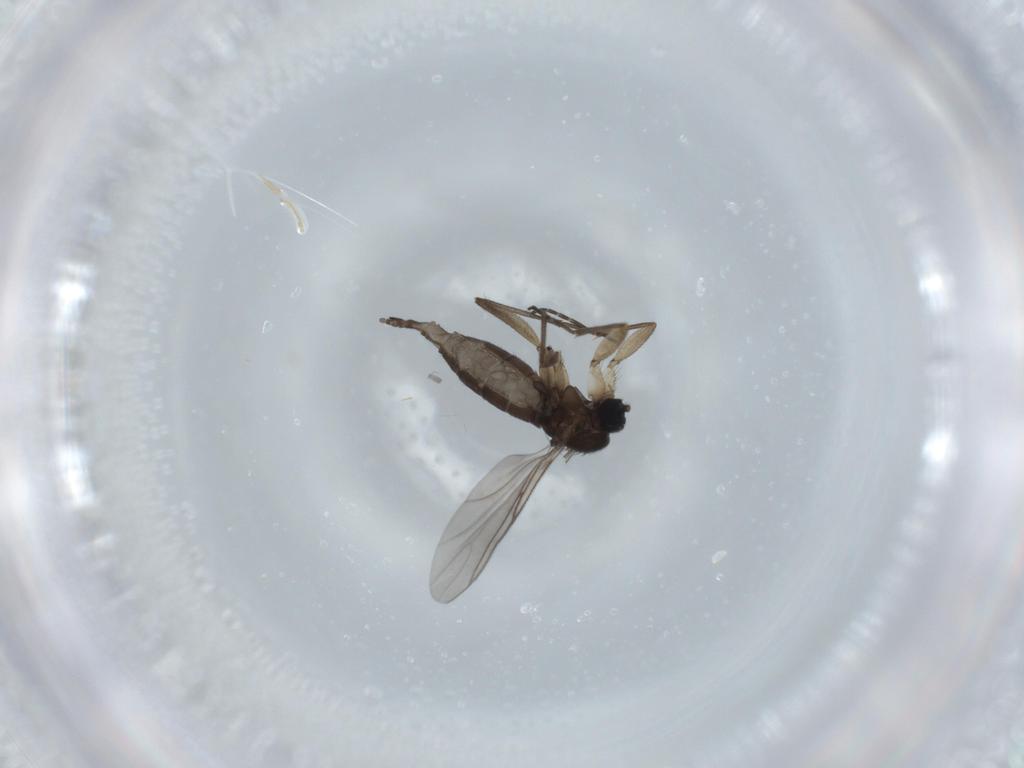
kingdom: Animalia
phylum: Arthropoda
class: Insecta
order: Diptera
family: Sciaridae
